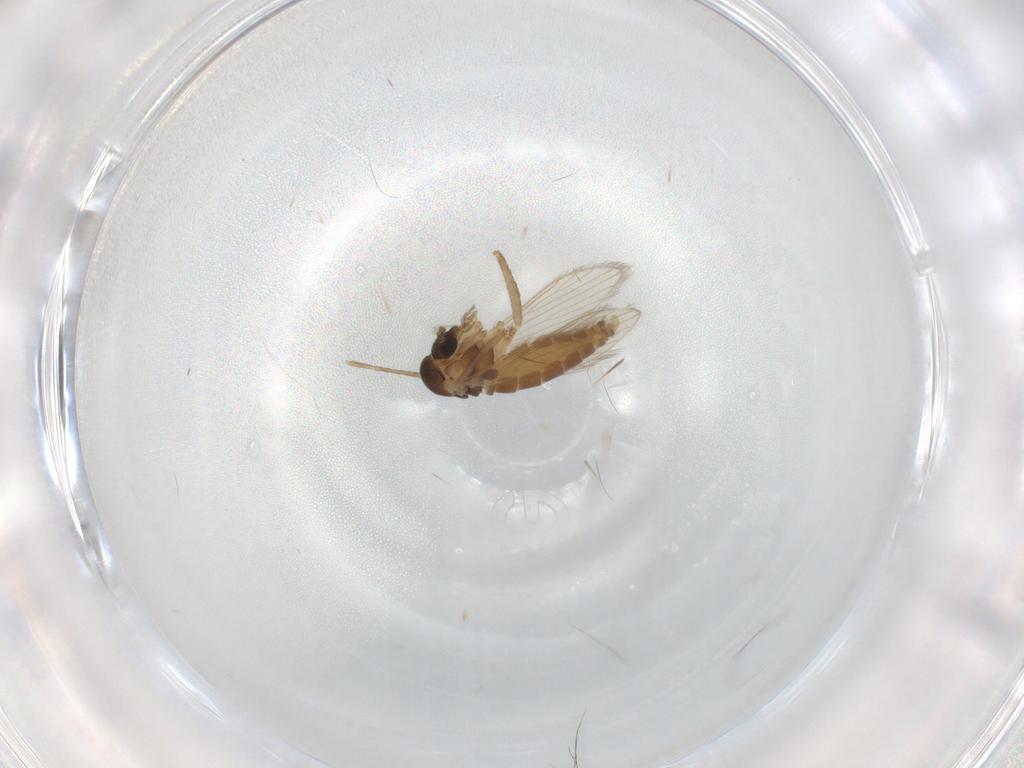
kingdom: Animalia
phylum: Arthropoda
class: Insecta
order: Diptera
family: Psychodidae
